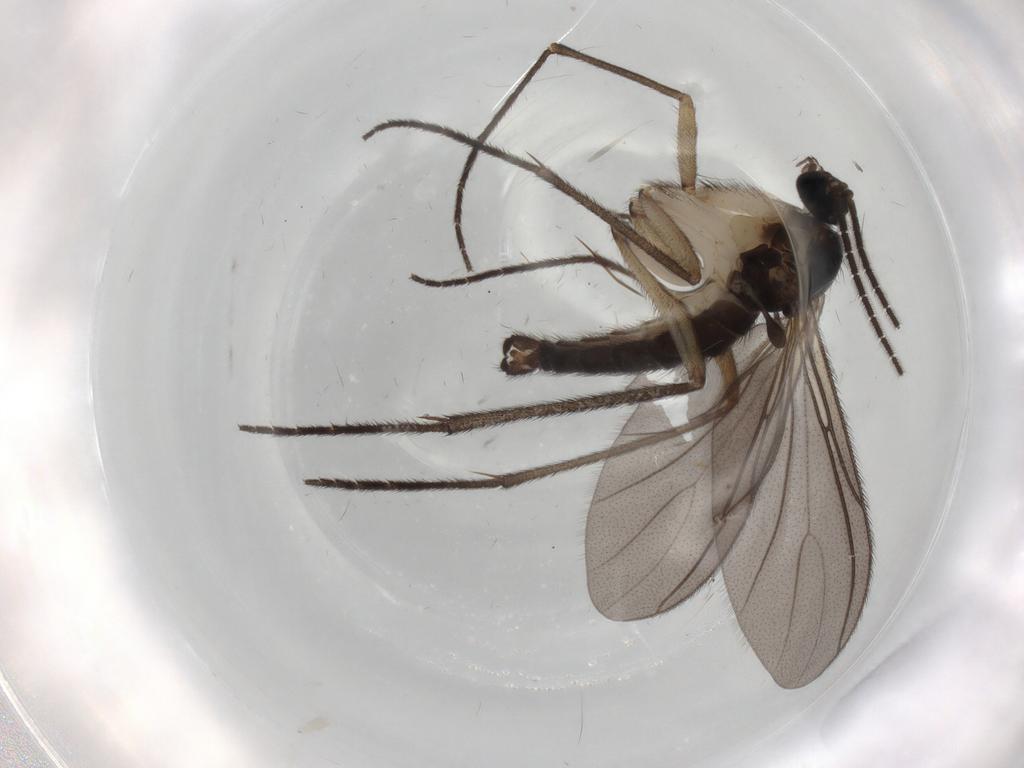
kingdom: Animalia
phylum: Arthropoda
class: Insecta
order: Diptera
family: Sciaridae
